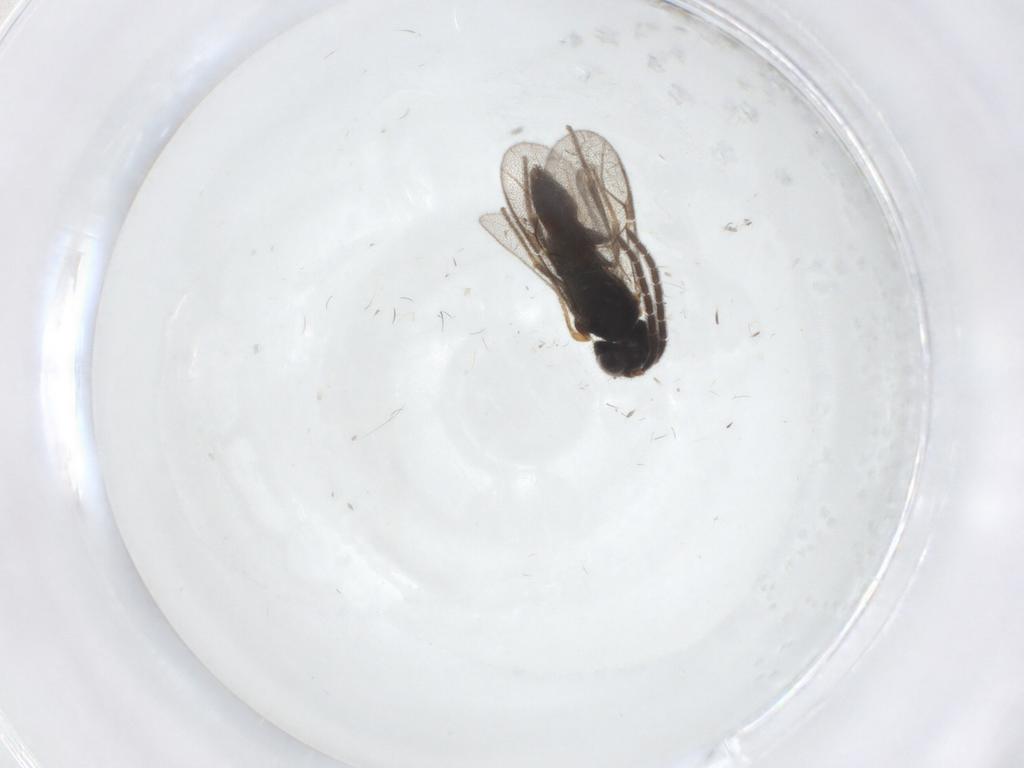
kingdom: Animalia
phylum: Arthropoda
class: Insecta
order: Hymenoptera
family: Dryinidae
